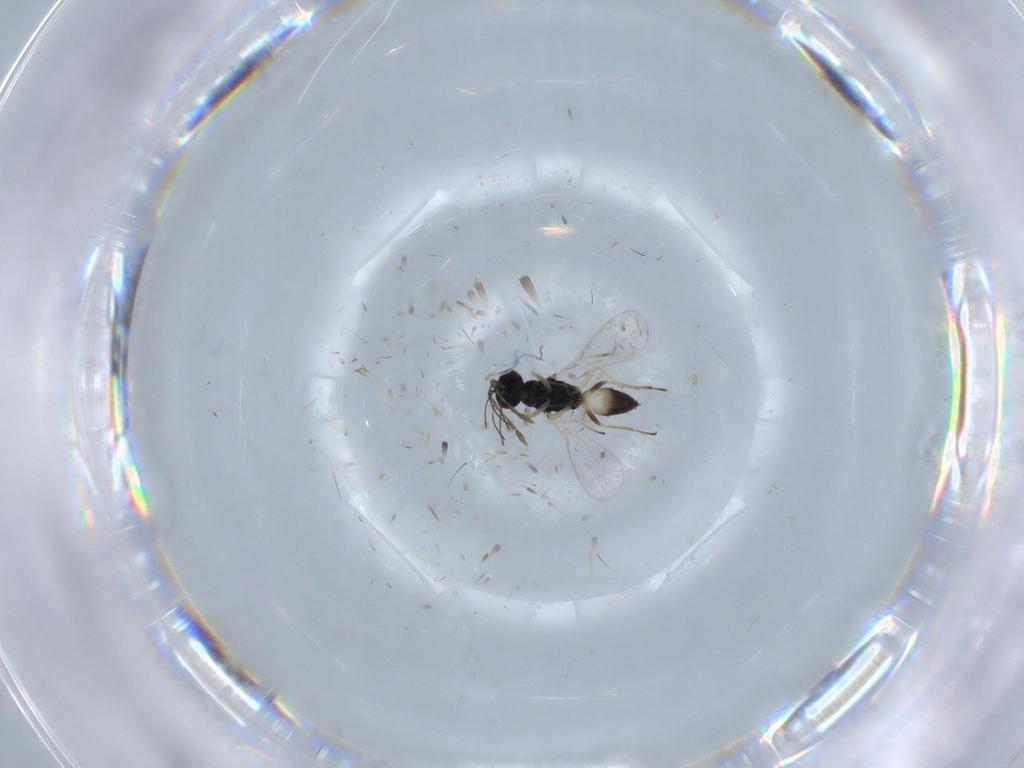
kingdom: Animalia
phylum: Arthropoda
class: Insecta
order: Hymenoptera
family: Eulophidae
